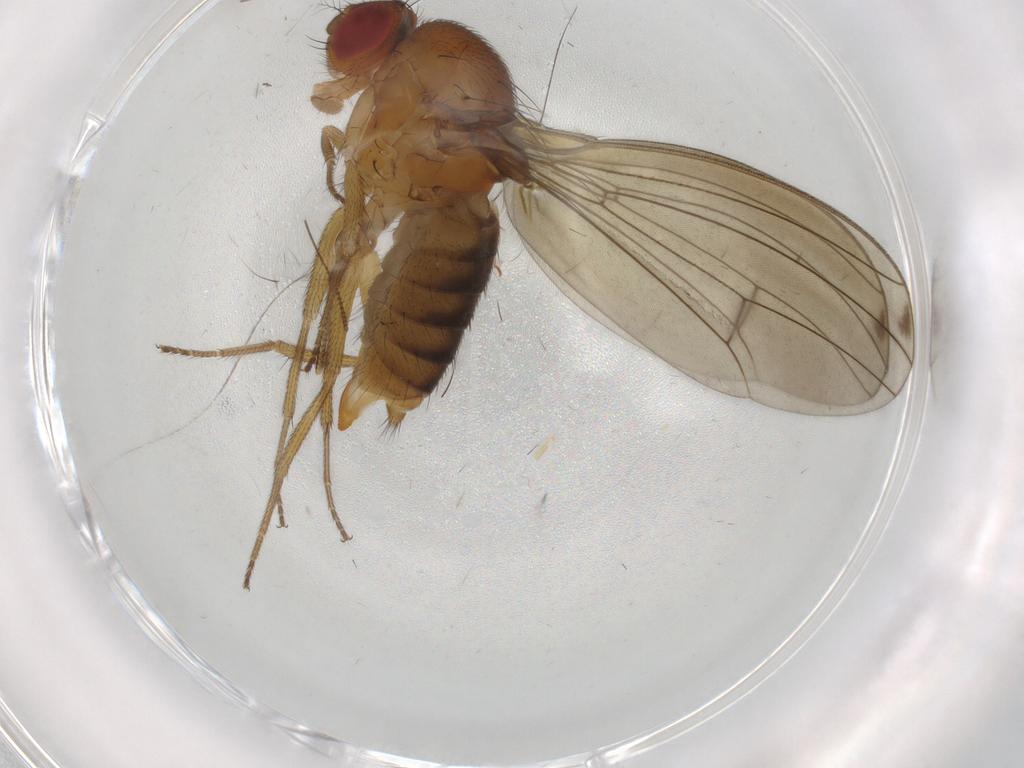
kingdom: Animalia
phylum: Arthropoda
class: Insecta
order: Diptera
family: Drosophilidae
